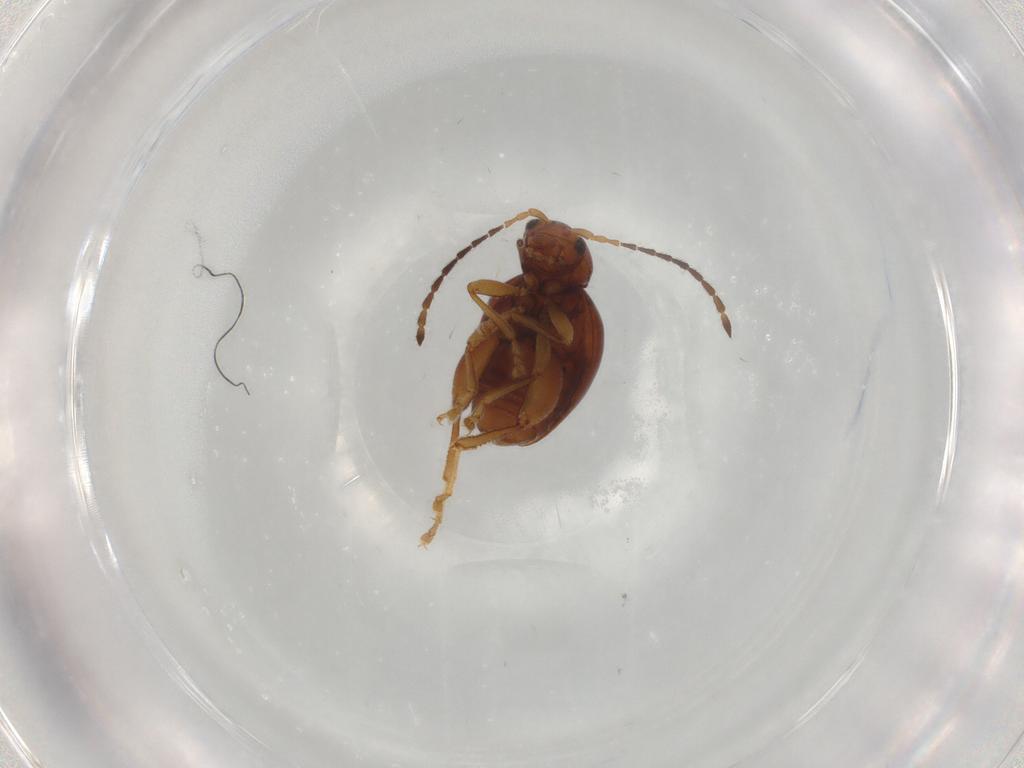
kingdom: Animalia
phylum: Arthropoda
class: Insecta
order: Coleoptera
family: Chrysomelidae
